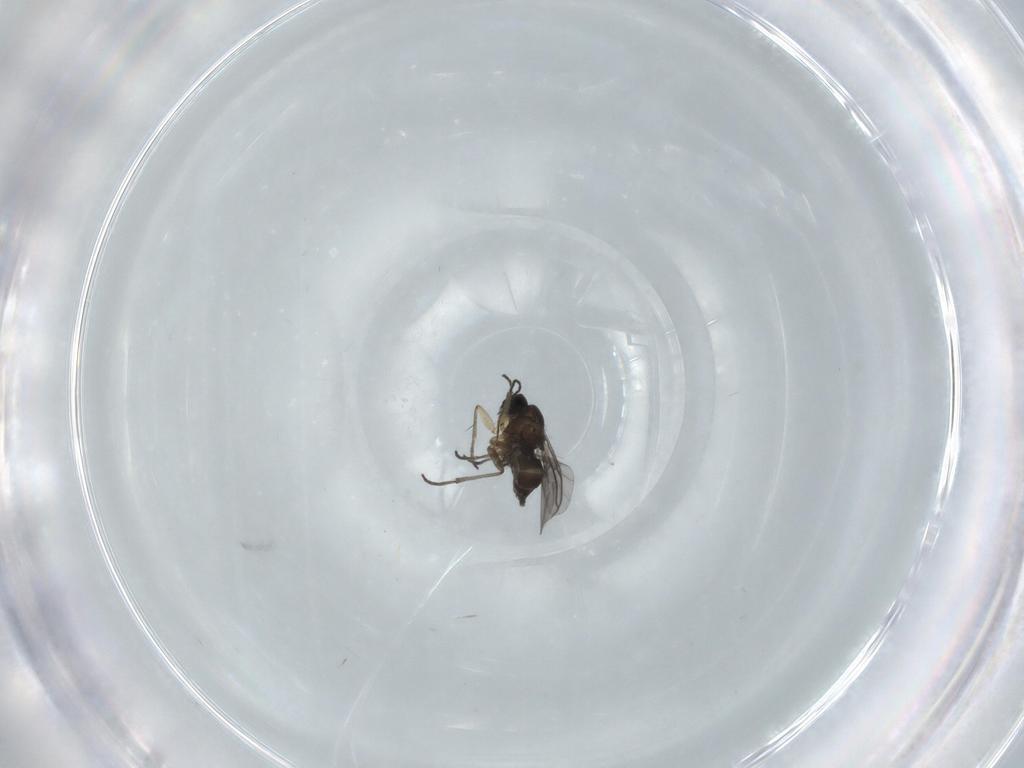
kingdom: Animalia
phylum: Arthropoda
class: Insecta
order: Diptera
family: Sciaridae
